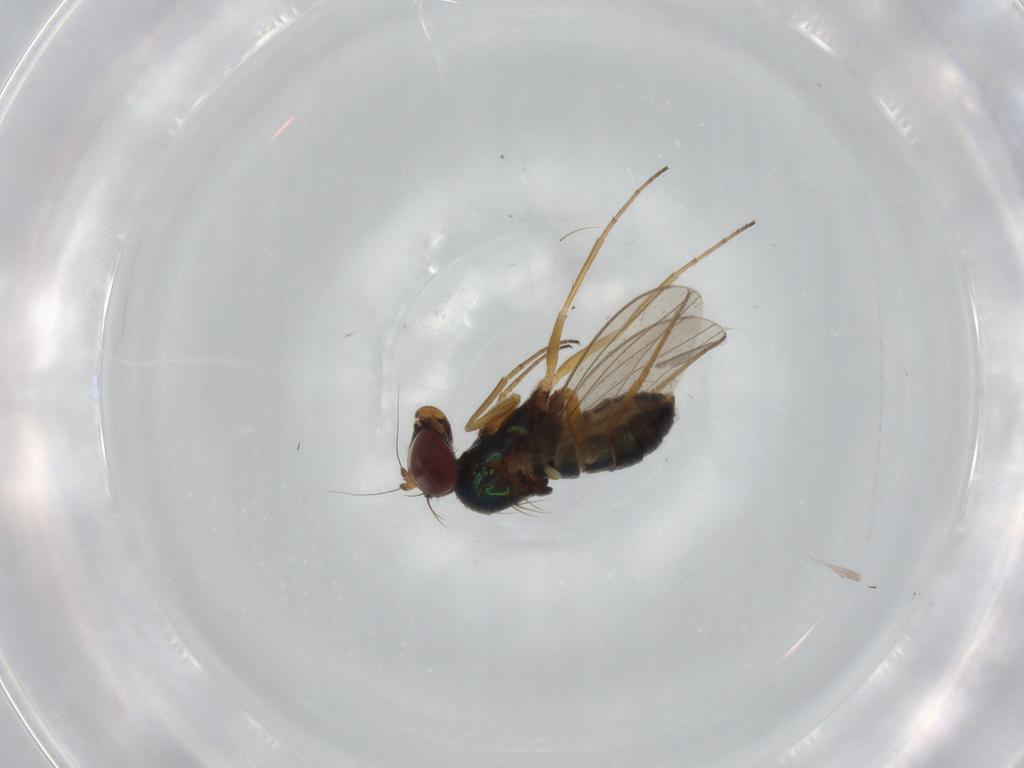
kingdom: Animalia
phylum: Arthropoda
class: Insecta
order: Diptera
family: Dolichopodidae
